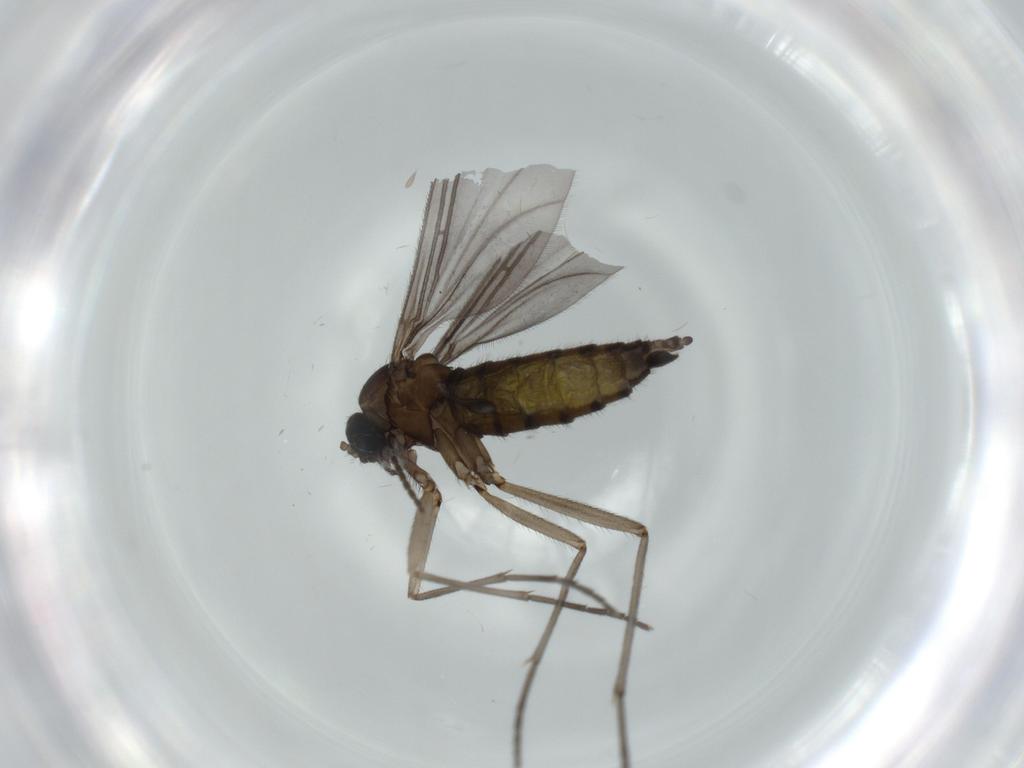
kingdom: Animalia
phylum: Arthropoda
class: Insecta
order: Diptera
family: Sciaridae
